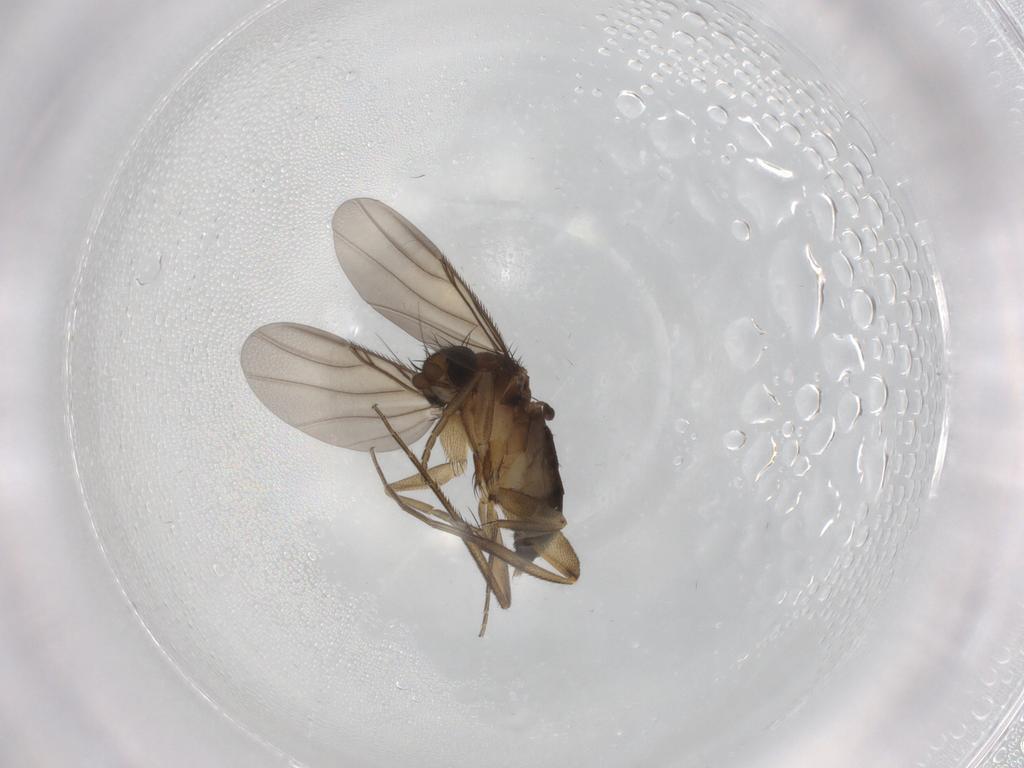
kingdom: Animalia
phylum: Arthropoda
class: Insecta
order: Diptera
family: Phoridae
